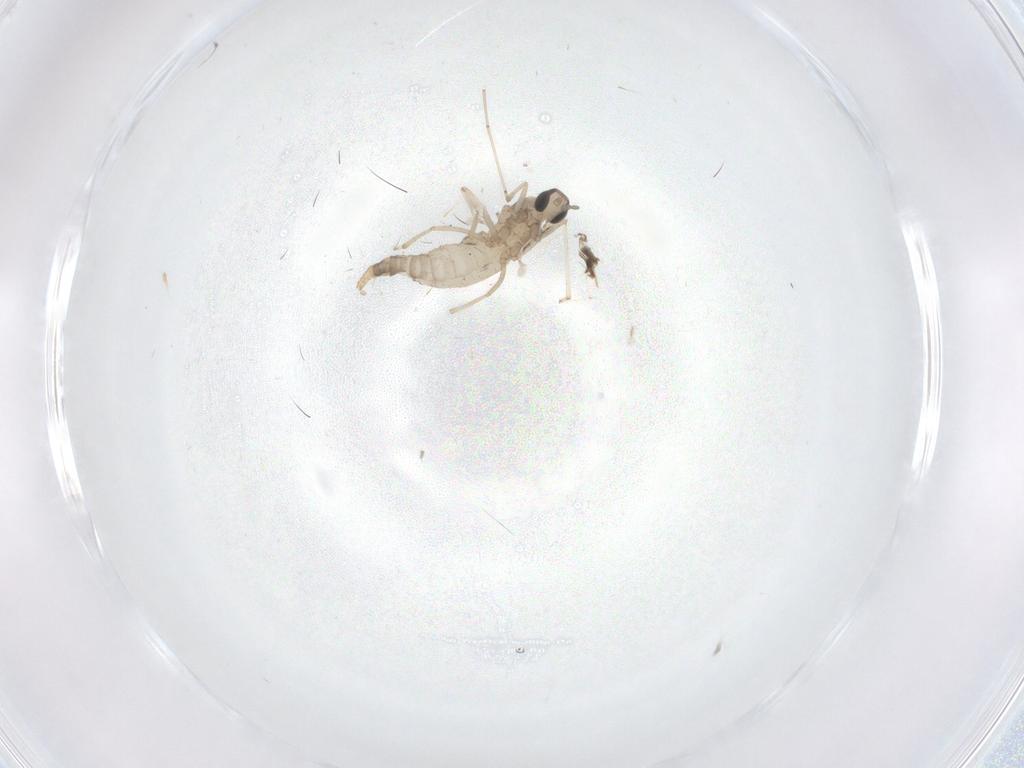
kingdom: Animalia
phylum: Arthropoda
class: Insecta
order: Diptera
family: Cecidomyiidae
